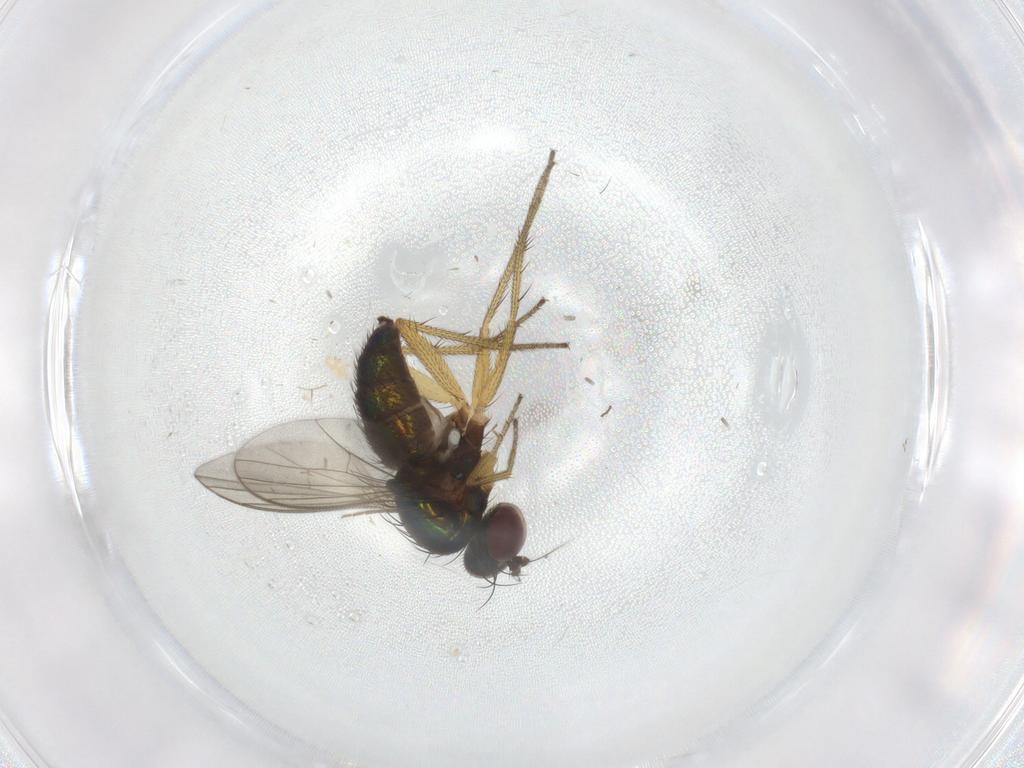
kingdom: Animalia
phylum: Arthropoda
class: Insecta
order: Diptera
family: Dolichopodidae
